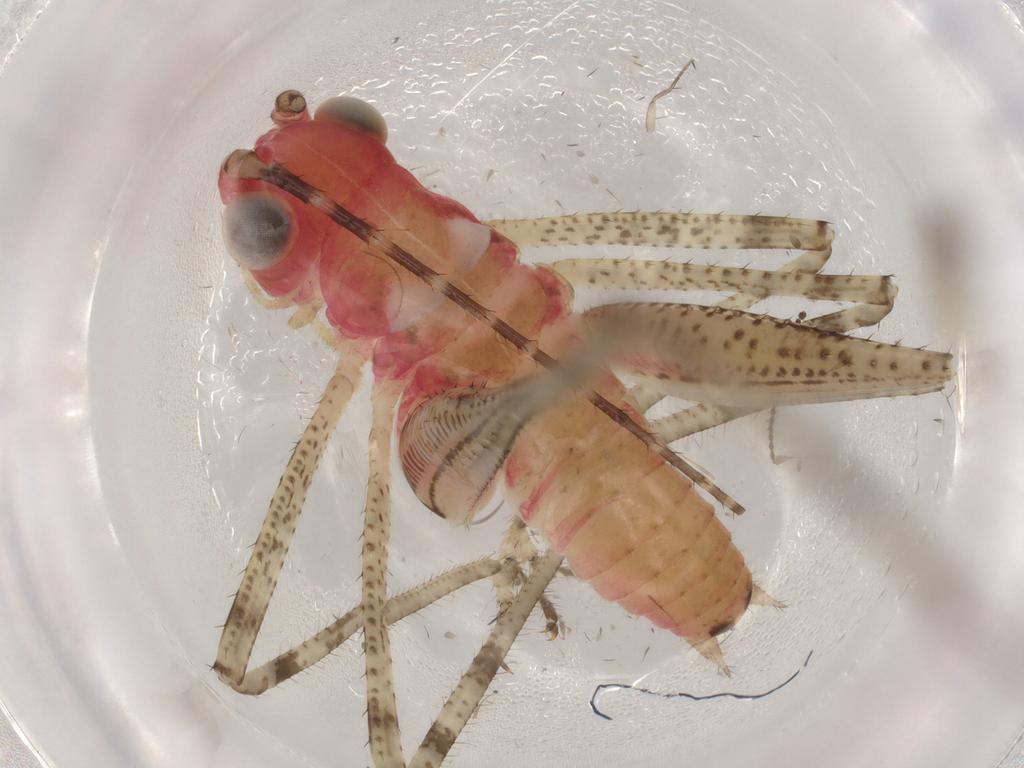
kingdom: Animalia
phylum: Arthropoda
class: Insecta
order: Orthoptera
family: Tettigoniidae
